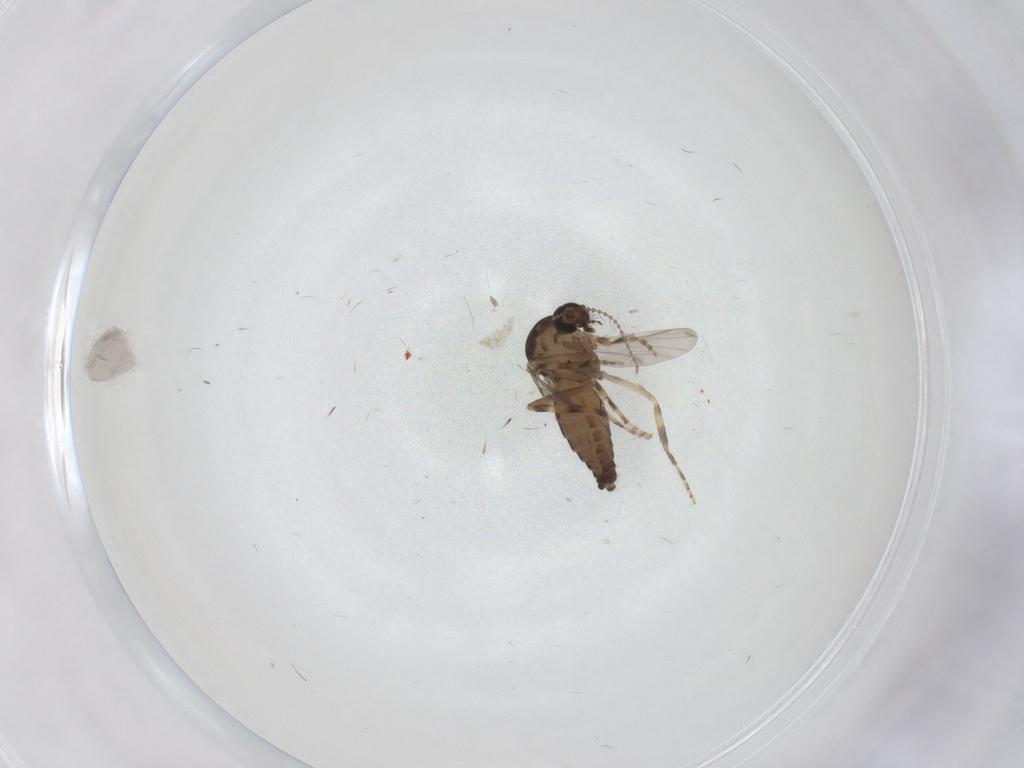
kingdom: Animalia
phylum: Arthropoda
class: Insecta
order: Diptera
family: Ceratopogonidae
